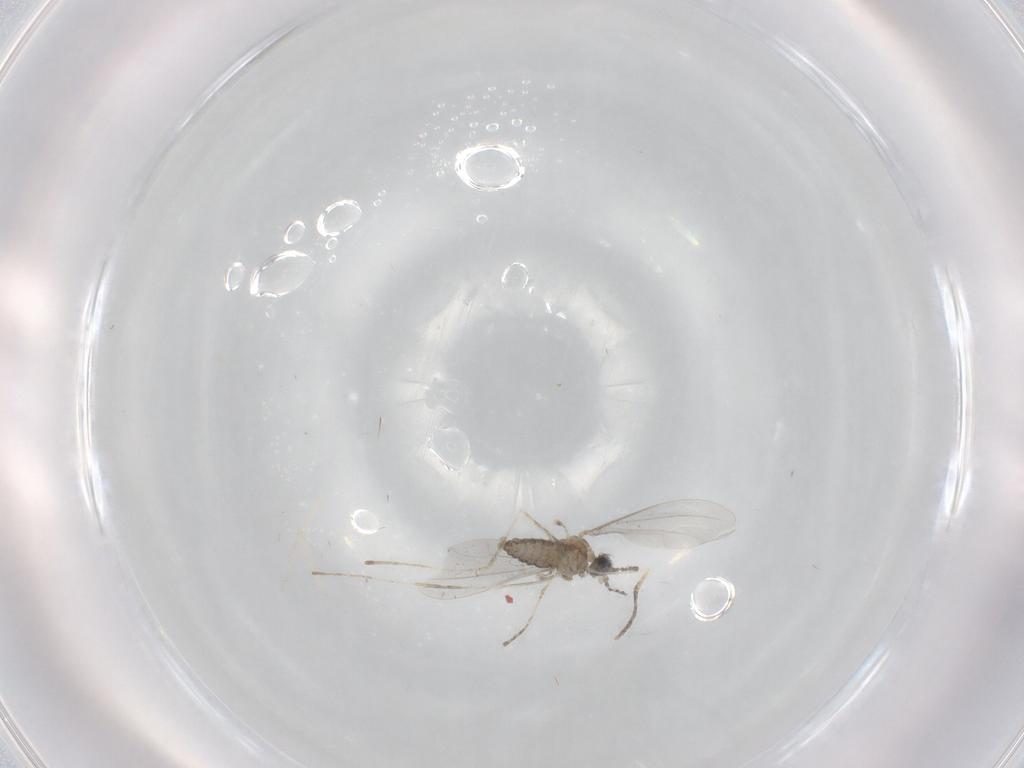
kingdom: Animalia
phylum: Arthropoda
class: Insecta
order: Diptera
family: Cecidomyiidae
